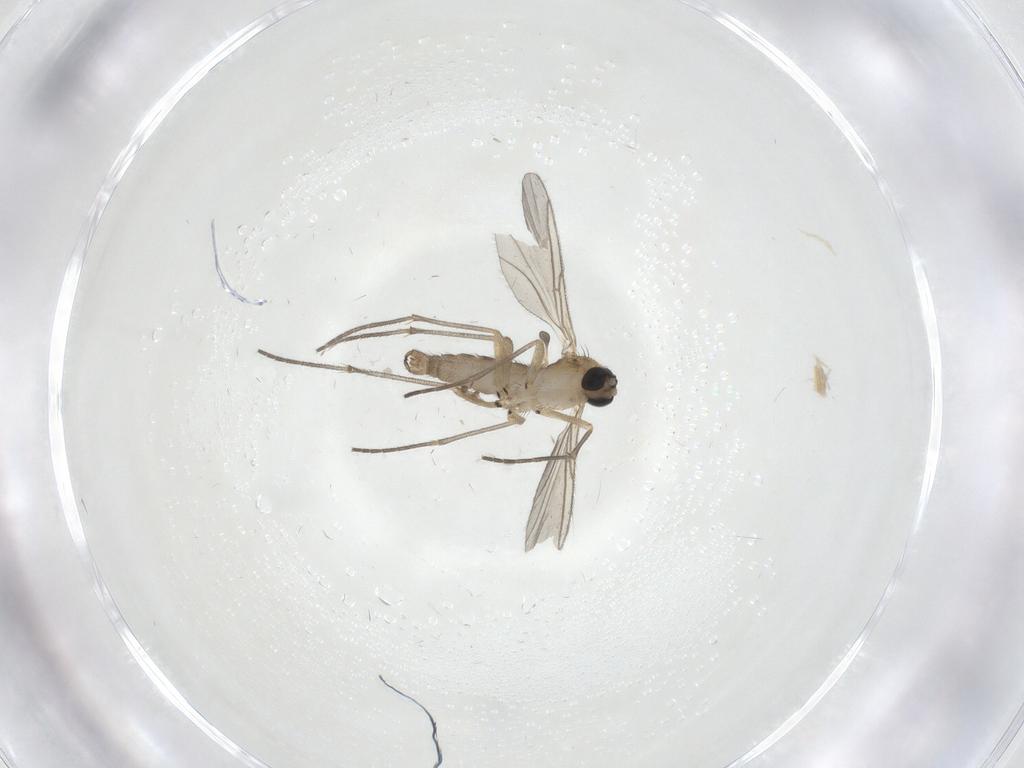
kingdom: Animalia
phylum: Arthropoda
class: Insecta
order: Diptera
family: Psychodidae
